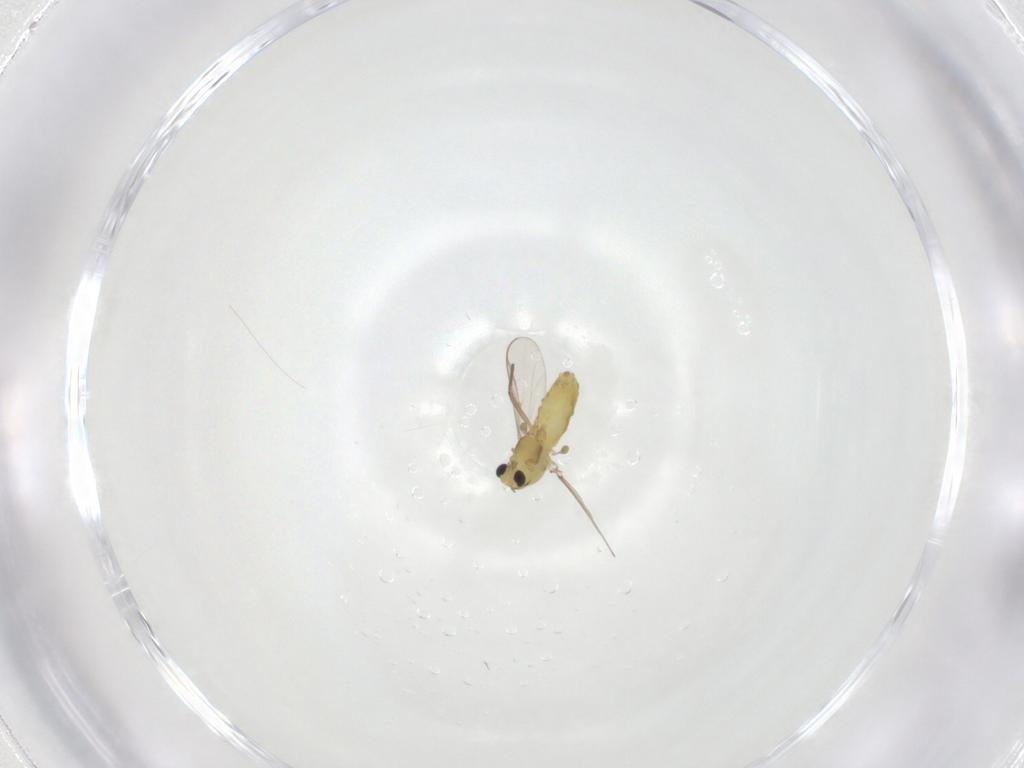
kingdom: Animalia
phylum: Arthropoda
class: Insecta
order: Diptera
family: Chironomidae
